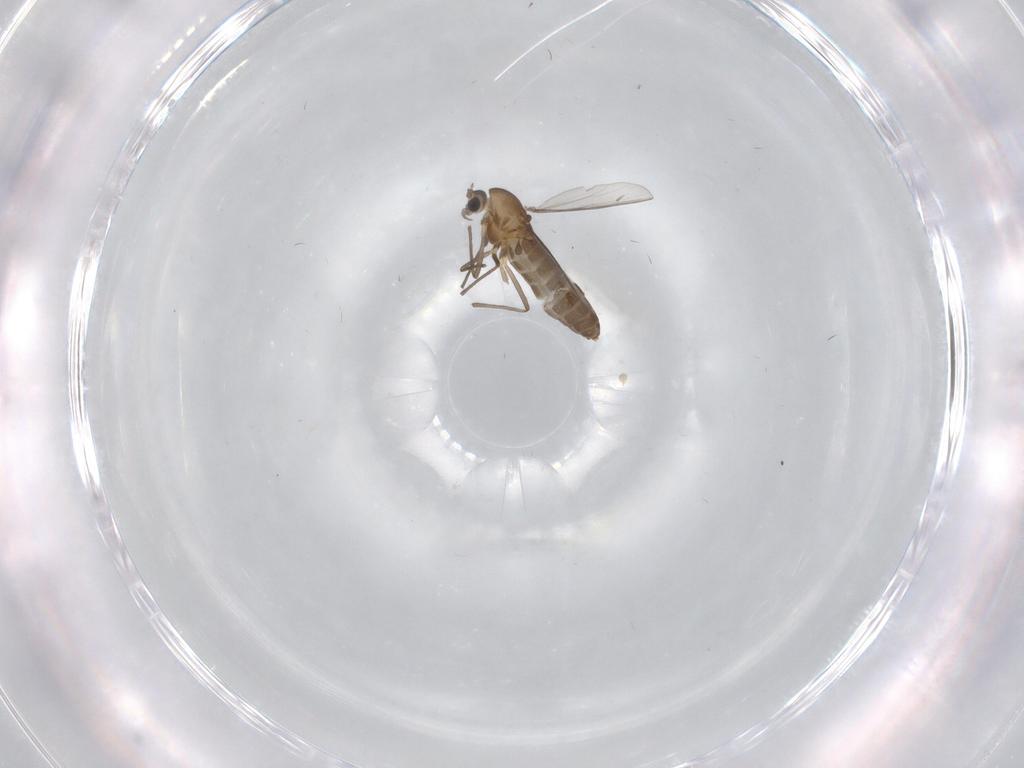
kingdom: Animalia
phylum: Arthropoda
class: Insecta
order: Diptera
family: Chironomidae
